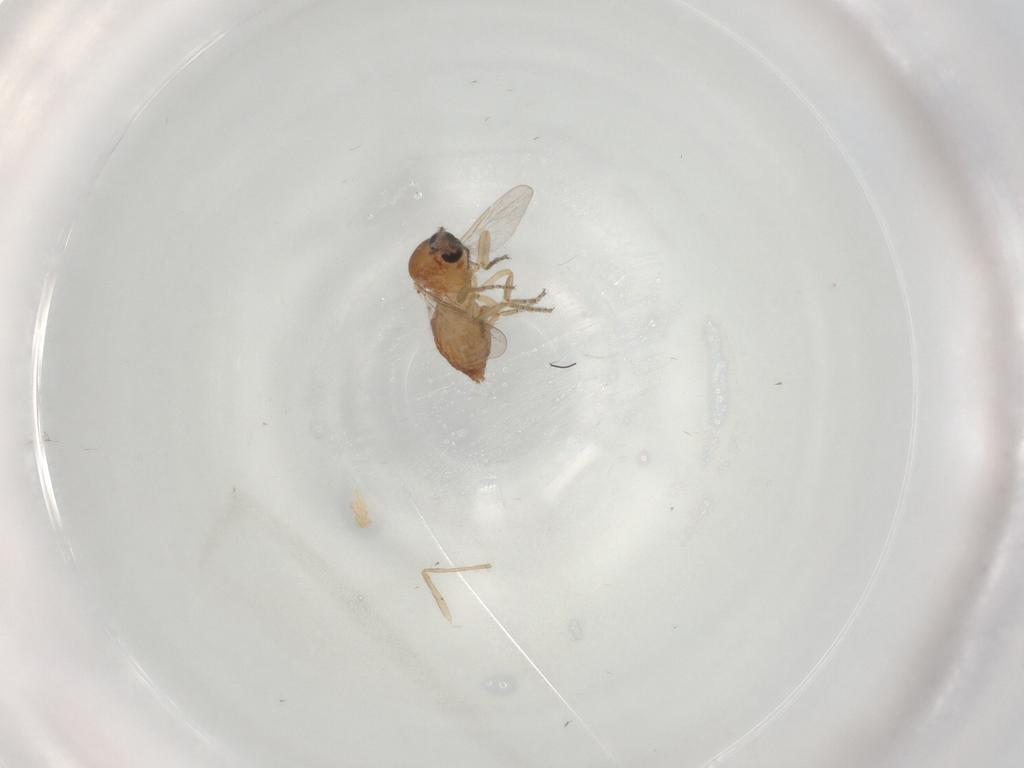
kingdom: Animalia
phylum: Arthropoda
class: Insecta
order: Diptera
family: Ceratopogonidae
